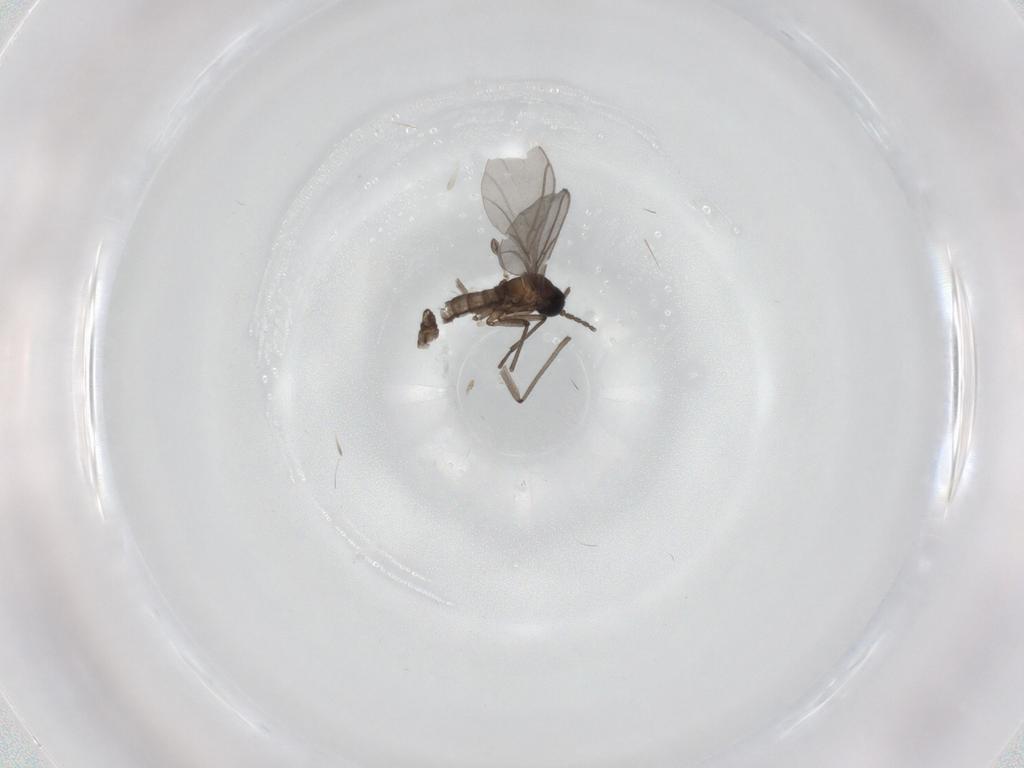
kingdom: Animalia
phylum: Arthropoda
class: Insecta
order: Diptera
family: Sciaridae
